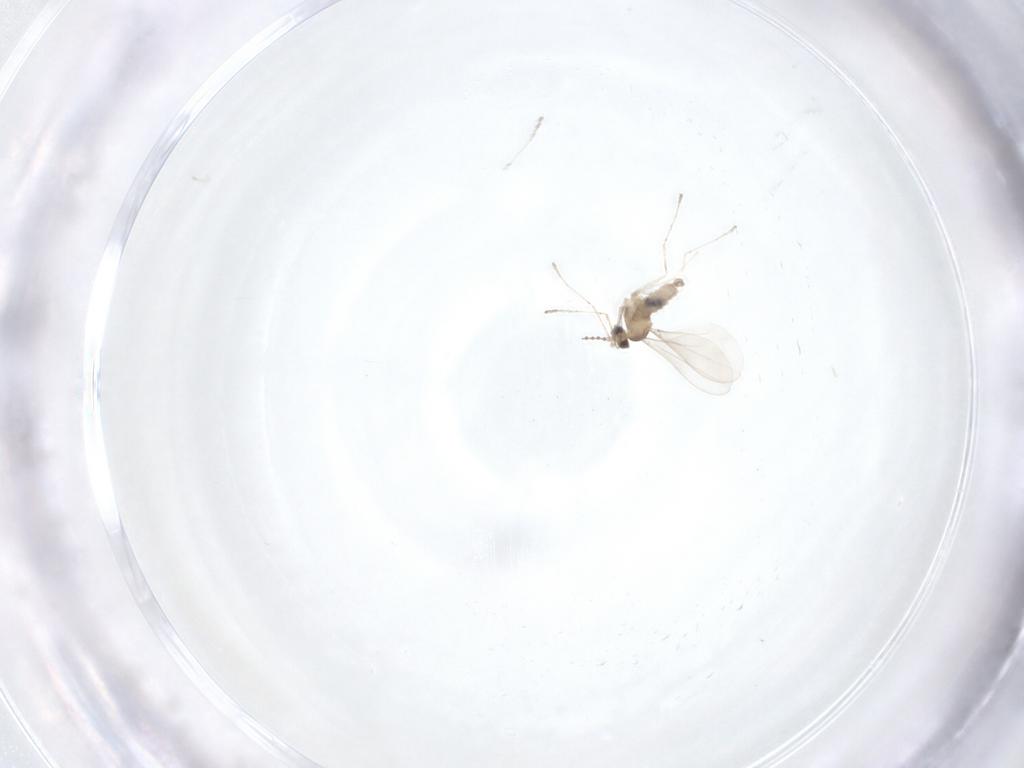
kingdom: Animalia
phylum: Arthropoda
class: Insecta
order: Diptera
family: Cecidomyiidae
